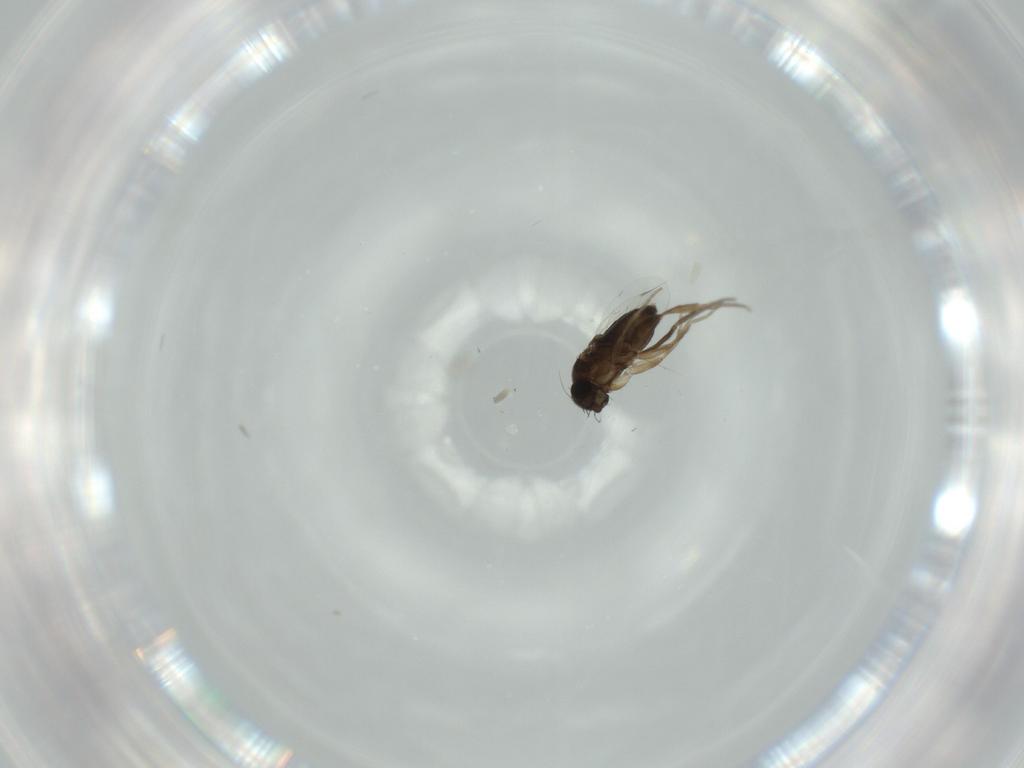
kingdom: Animalia
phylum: Arthropoda
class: Insecta
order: Diptera
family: Phoridae
